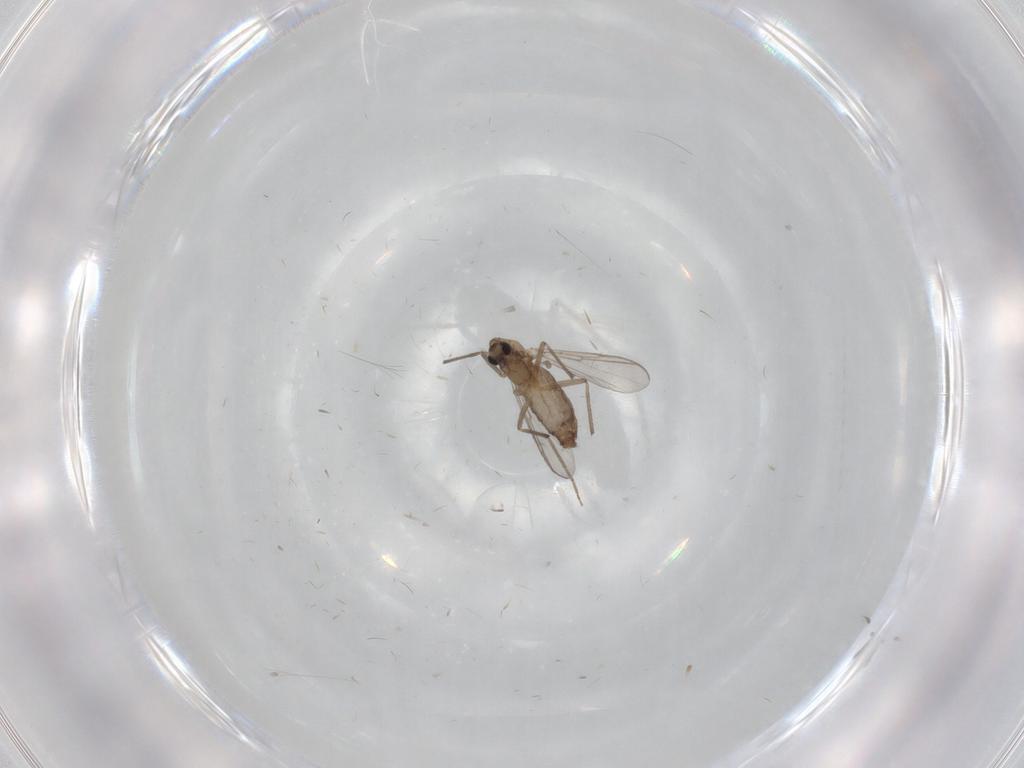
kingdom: Animalia
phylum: Arthropoda
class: Insecta
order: Diptera
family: Chironomidae
